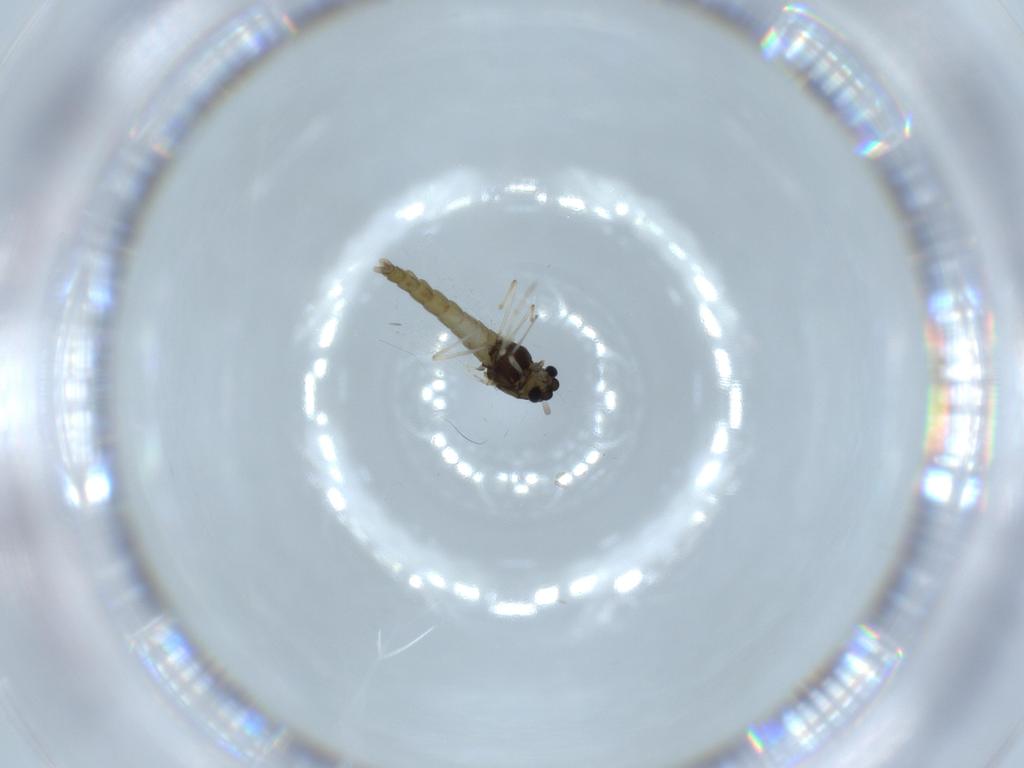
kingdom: Animalia
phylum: Arthropoda
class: Insecta
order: Diptera
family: Chironomidae
